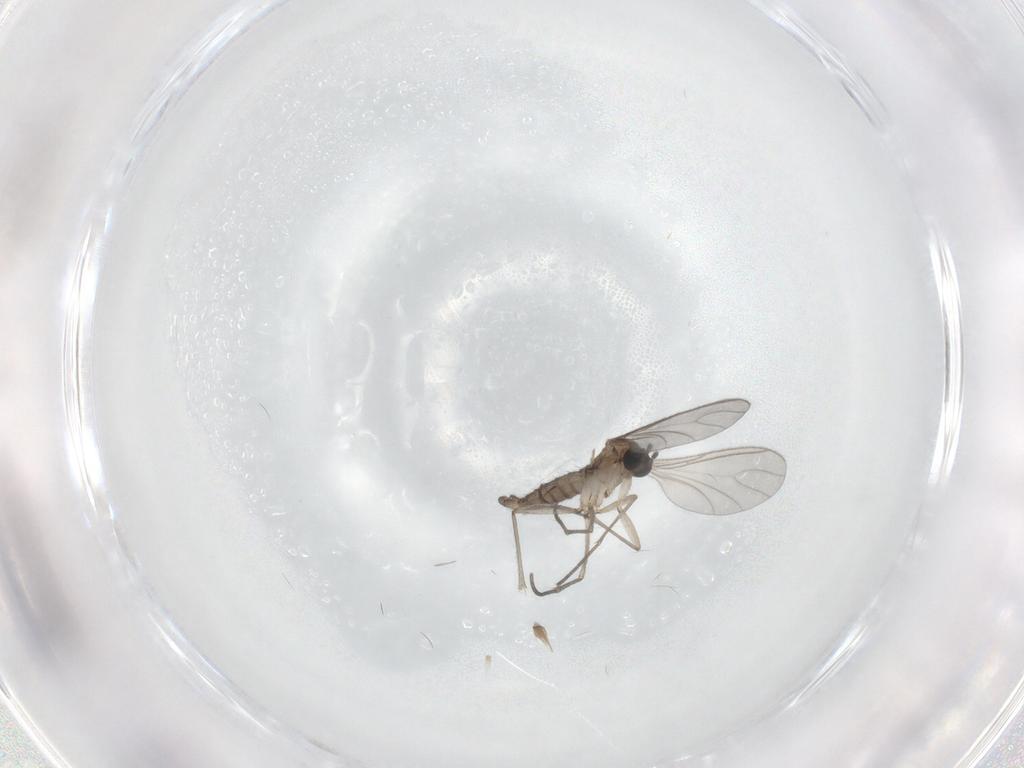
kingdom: Animalia
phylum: Arthropoda
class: Insecta
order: Diptera
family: Sciaridae
